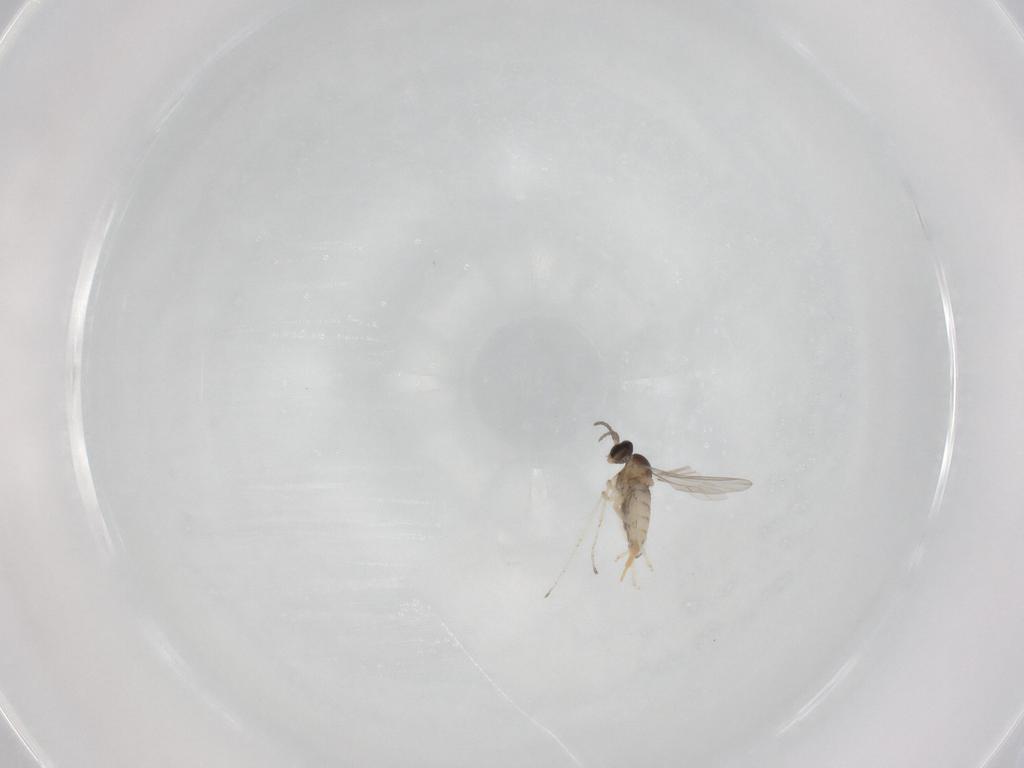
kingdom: Animalia
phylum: Arthropoda
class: Insecta
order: Diptera
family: Cecidomyiidae
